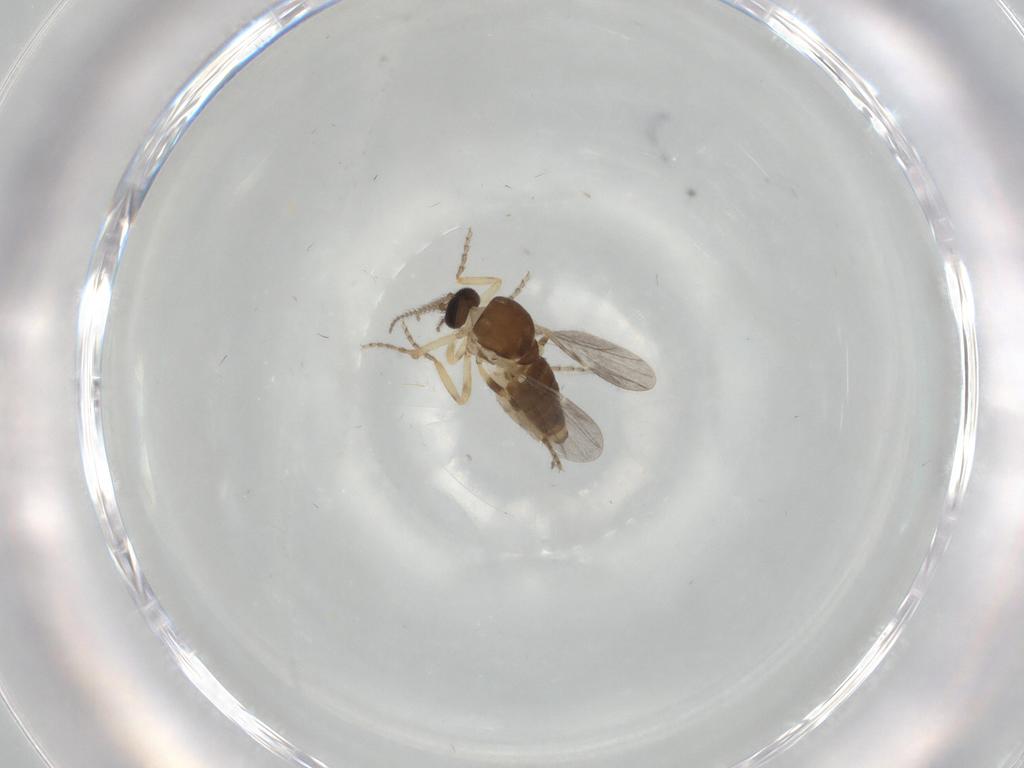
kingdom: Animalia
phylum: Arthropoda
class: Insecta
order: Diptera
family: Ceratopogonidae
